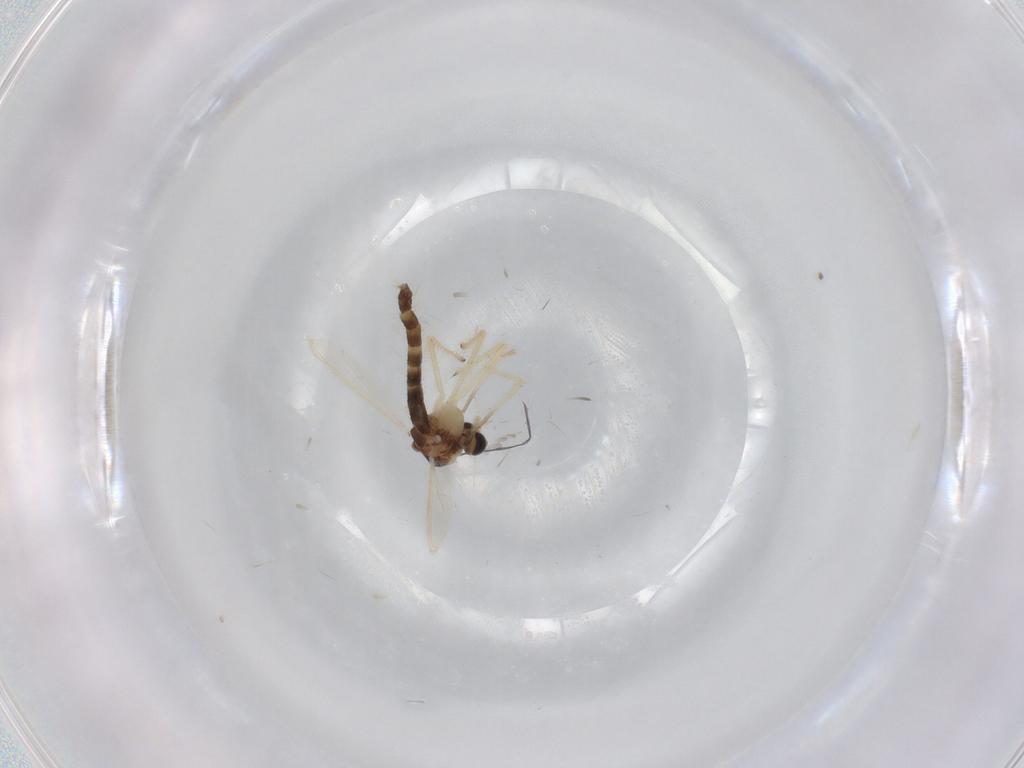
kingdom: Animalia
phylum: Arthropoda
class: Insecta
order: Diptera
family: Chironomidae
